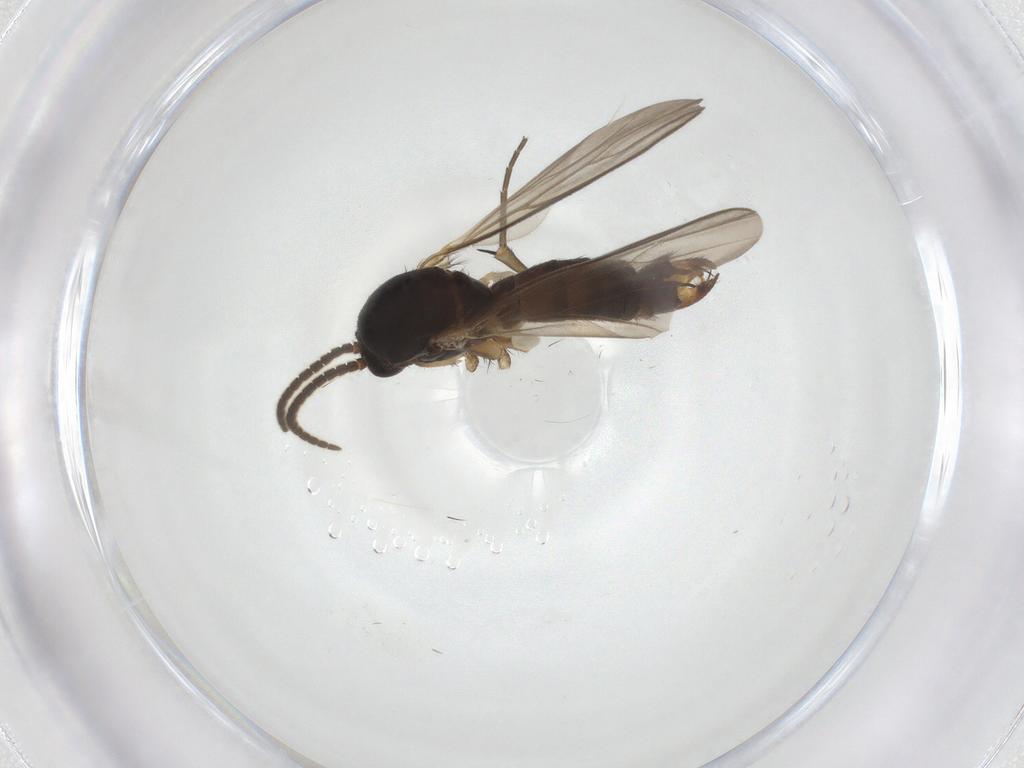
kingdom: Animalia
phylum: Arthropoda
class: Insecta
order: Diptera
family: Mycetophilidae
